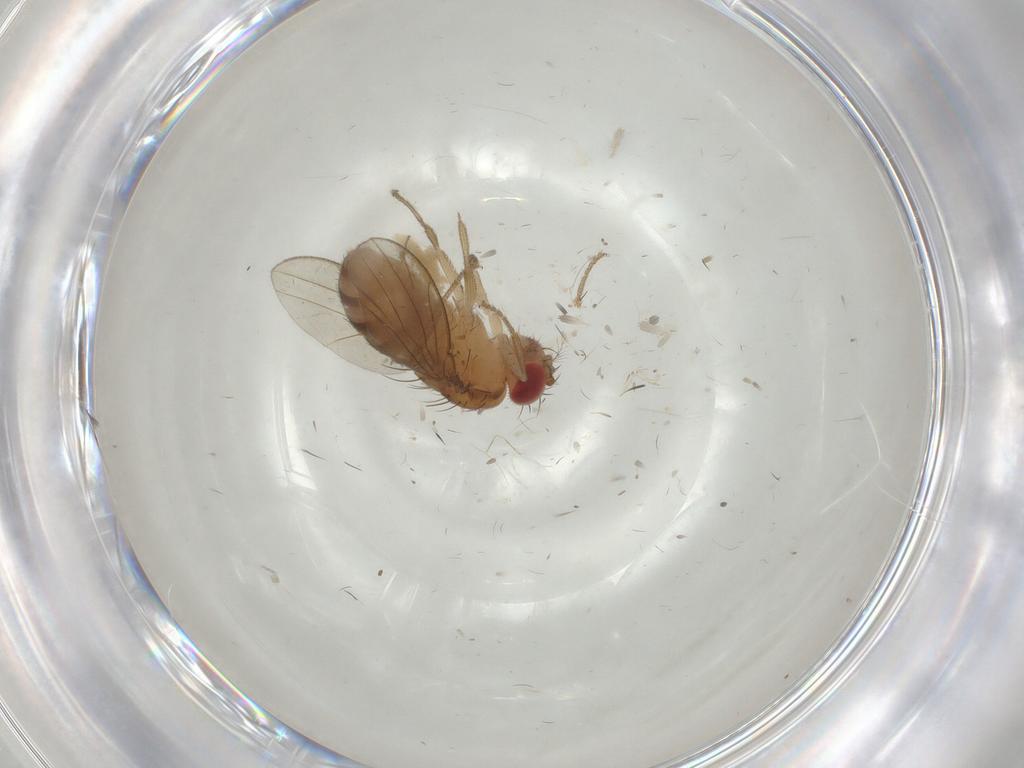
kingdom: Animalia
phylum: Arthropoda
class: Insecta
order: Diptera
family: Drosophilidae
